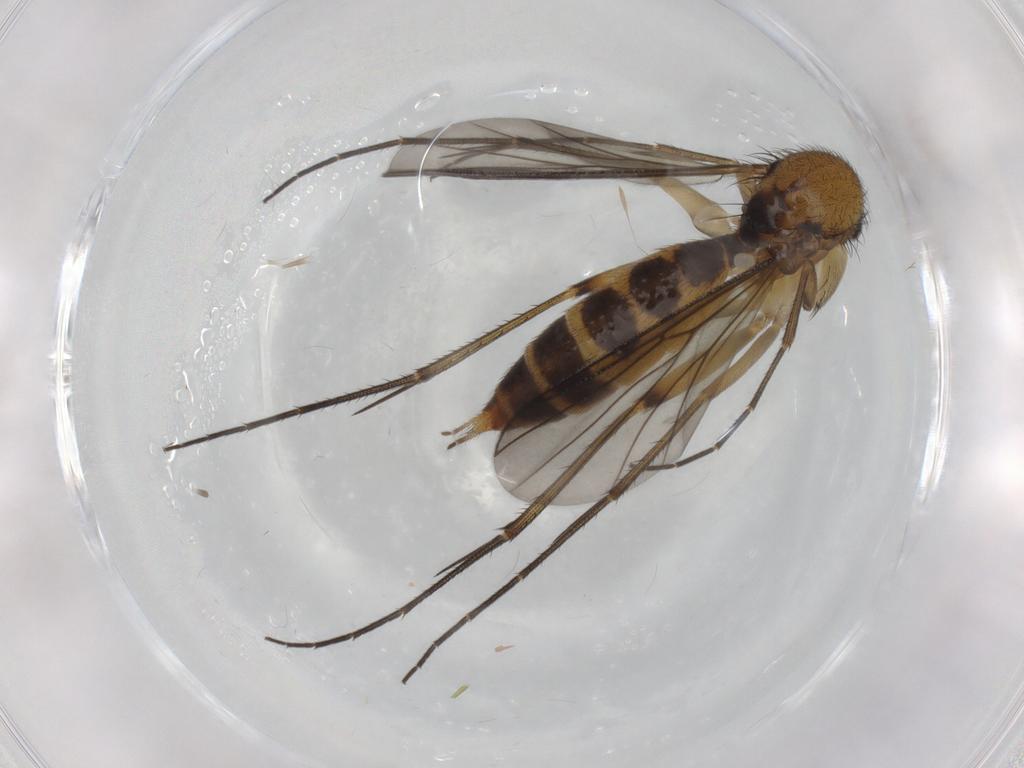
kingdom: Animalia
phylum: Arthropoda
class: Insecta
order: Diptera
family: Mycetophilidae
